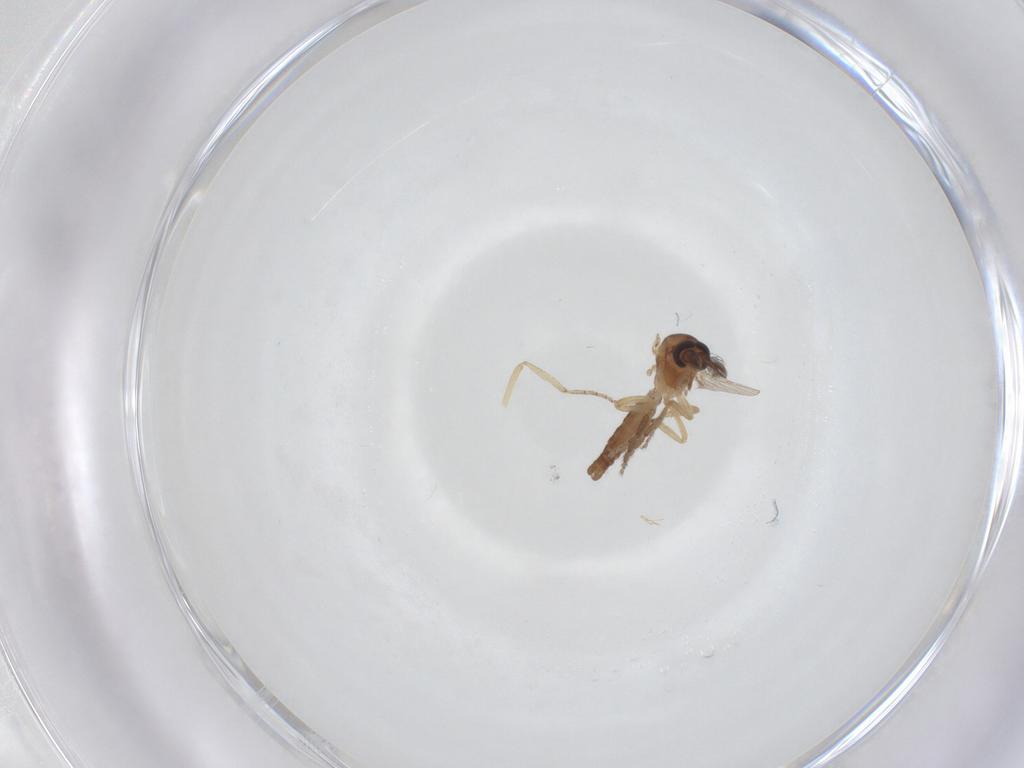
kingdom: Animalia
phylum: Arthropoda
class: Insecta
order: Diptera
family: Ceratopogonidae
